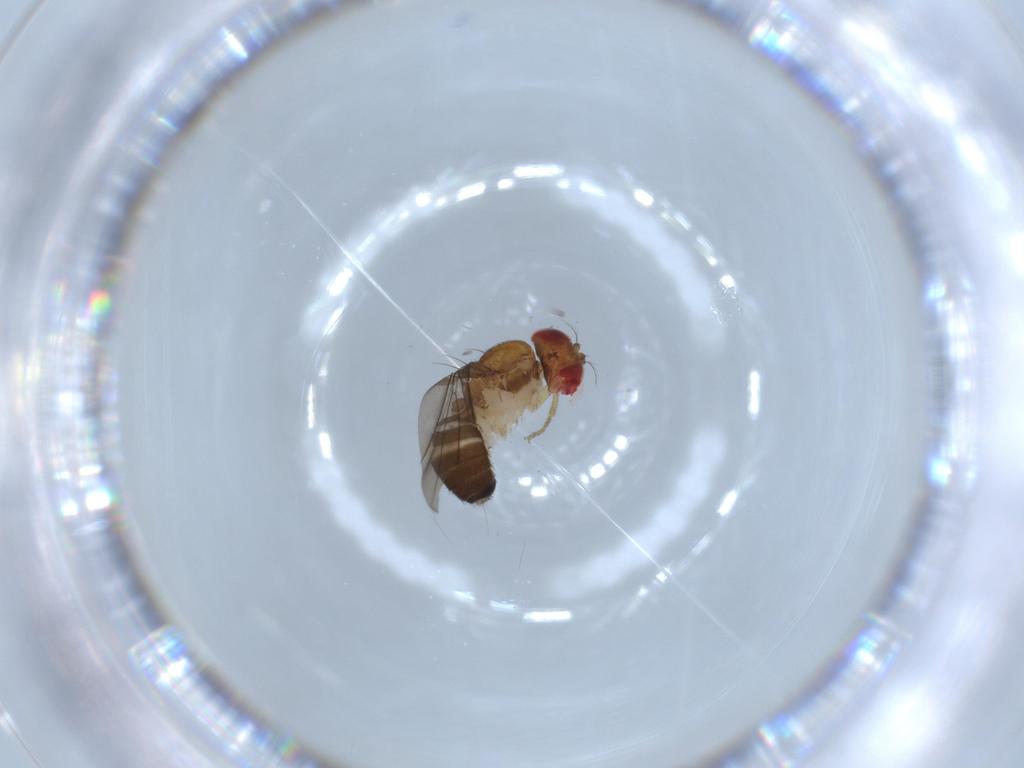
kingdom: Animalia
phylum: Arthropoda
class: Insecta
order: Diptera
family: Drosophilidae
